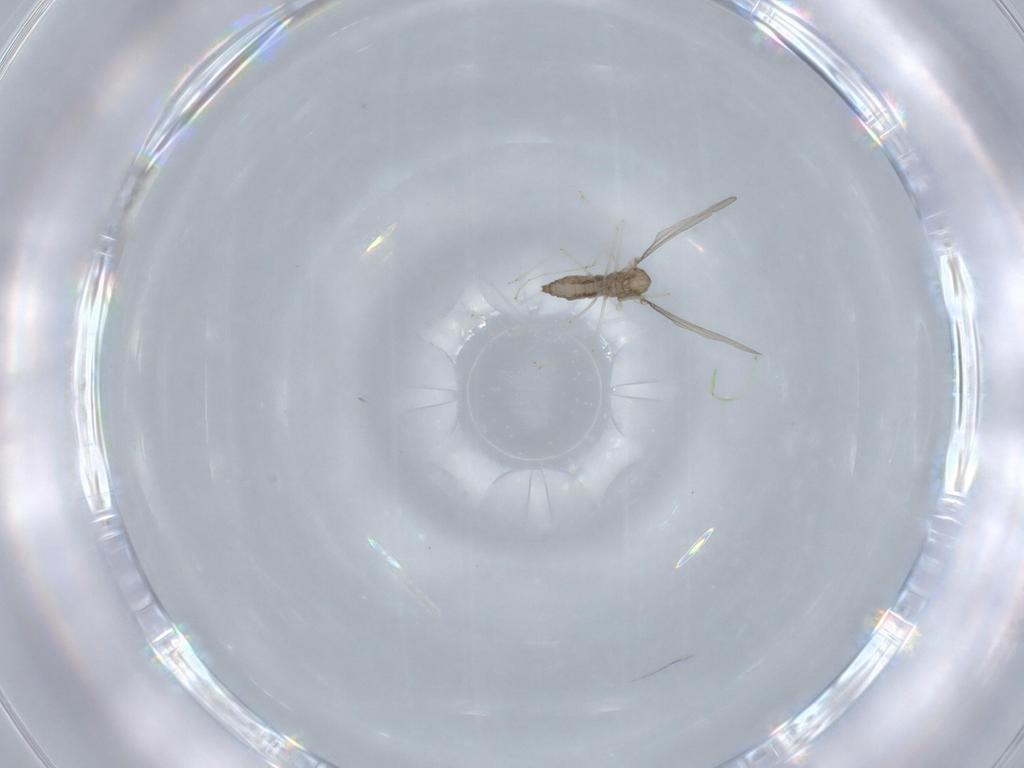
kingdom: Animalia
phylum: Arthropoda
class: Insecta
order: Diptera
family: Cecidomyiidae
